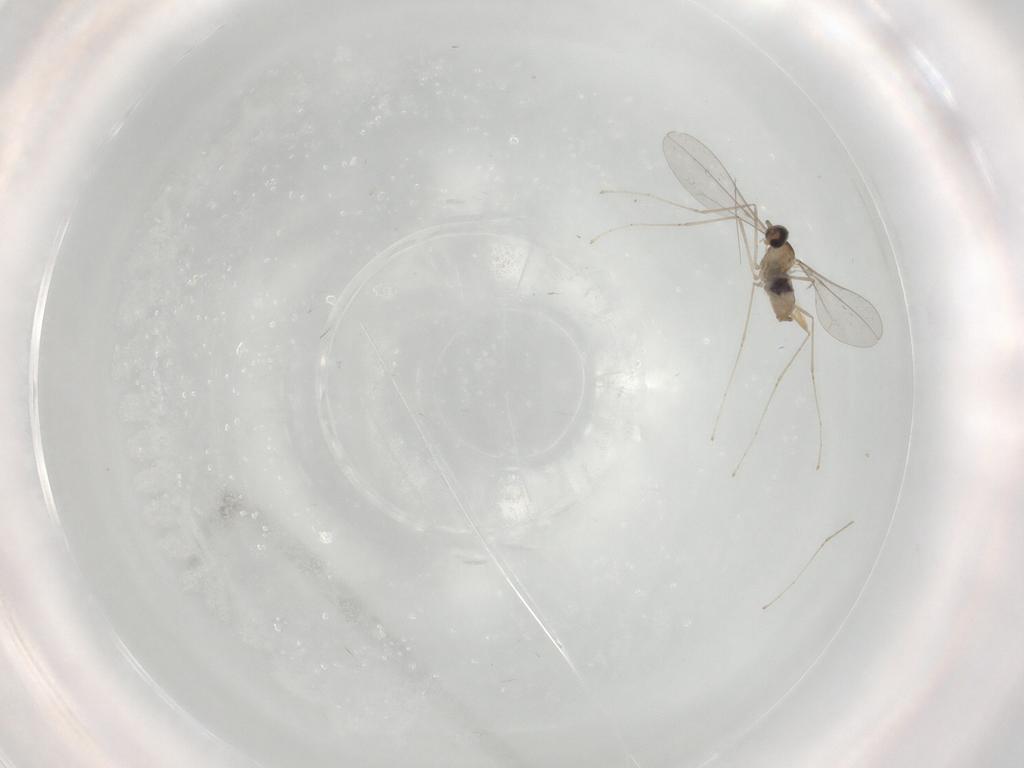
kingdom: Animalia
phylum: Arthropoda
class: Insecta
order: Diptera
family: Cecidomyiidae
